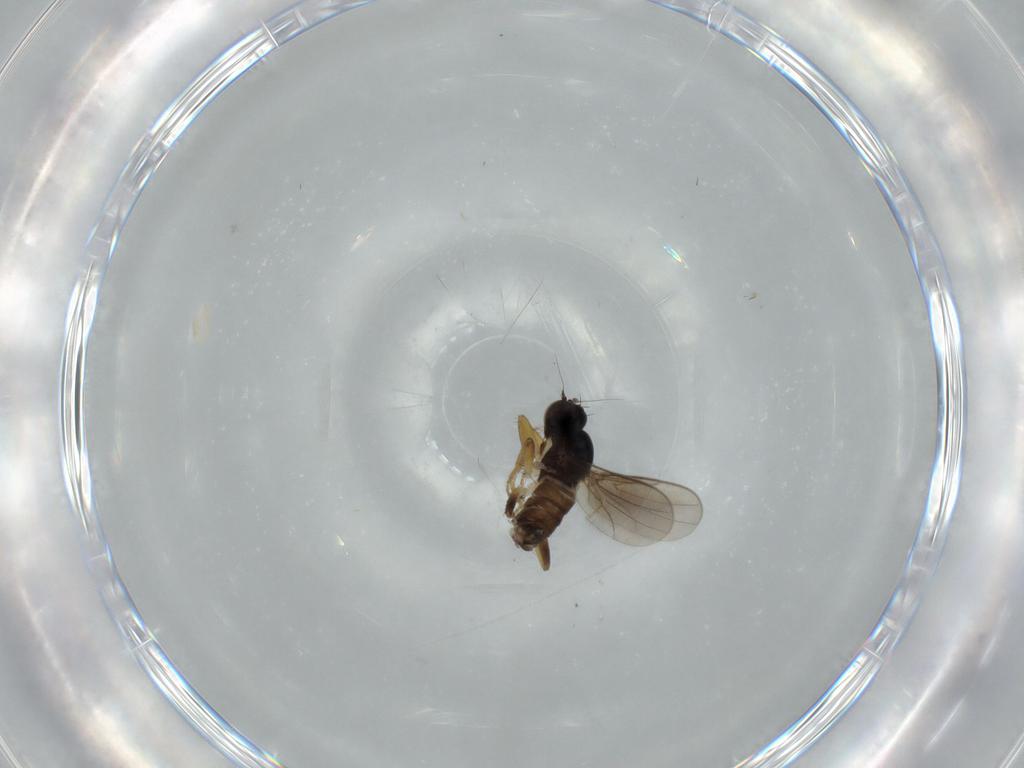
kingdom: Animalia
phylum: Arthropoda
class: Insecta
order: Diptera
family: Hybotidae
